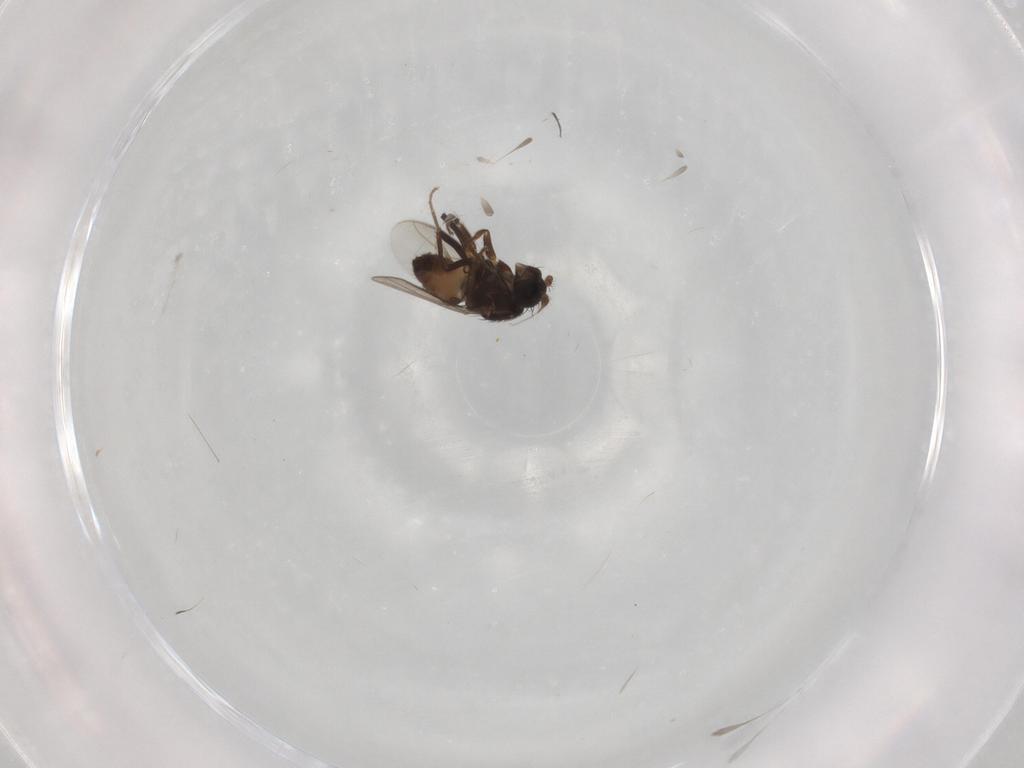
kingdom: Animalia
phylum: Arthropoda
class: Insecta
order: Diptera
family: Sphaeroceridae
